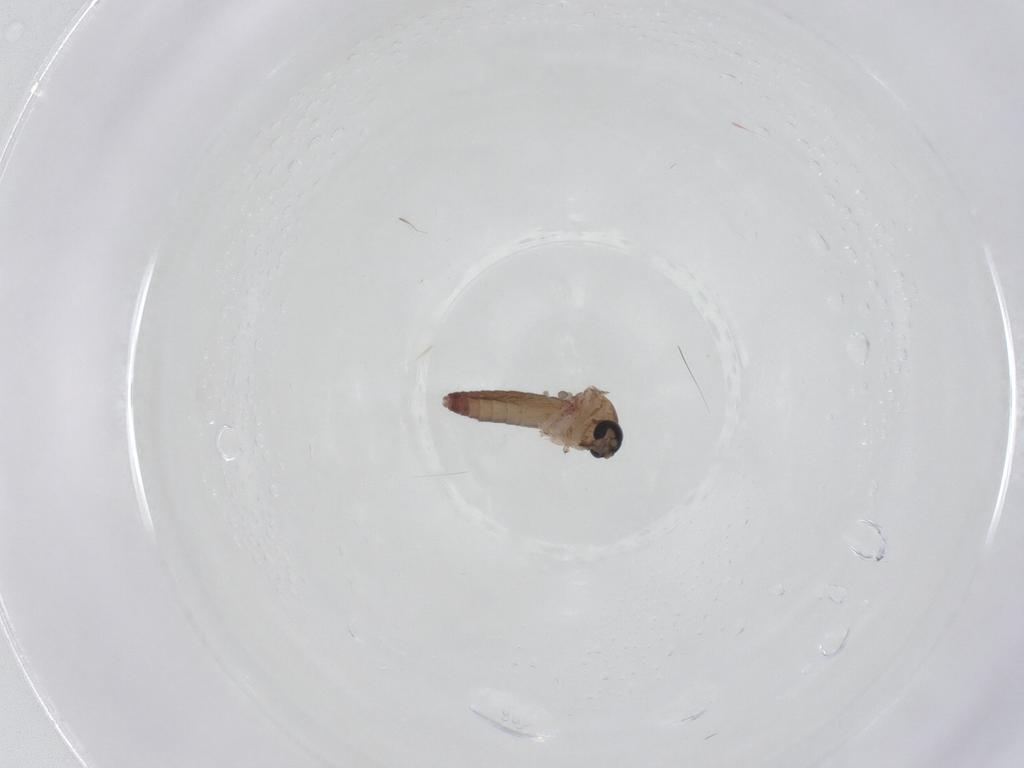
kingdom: Animalia
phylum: Arthropoda
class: Insecta
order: Diptera
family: Ceratopogonidae
